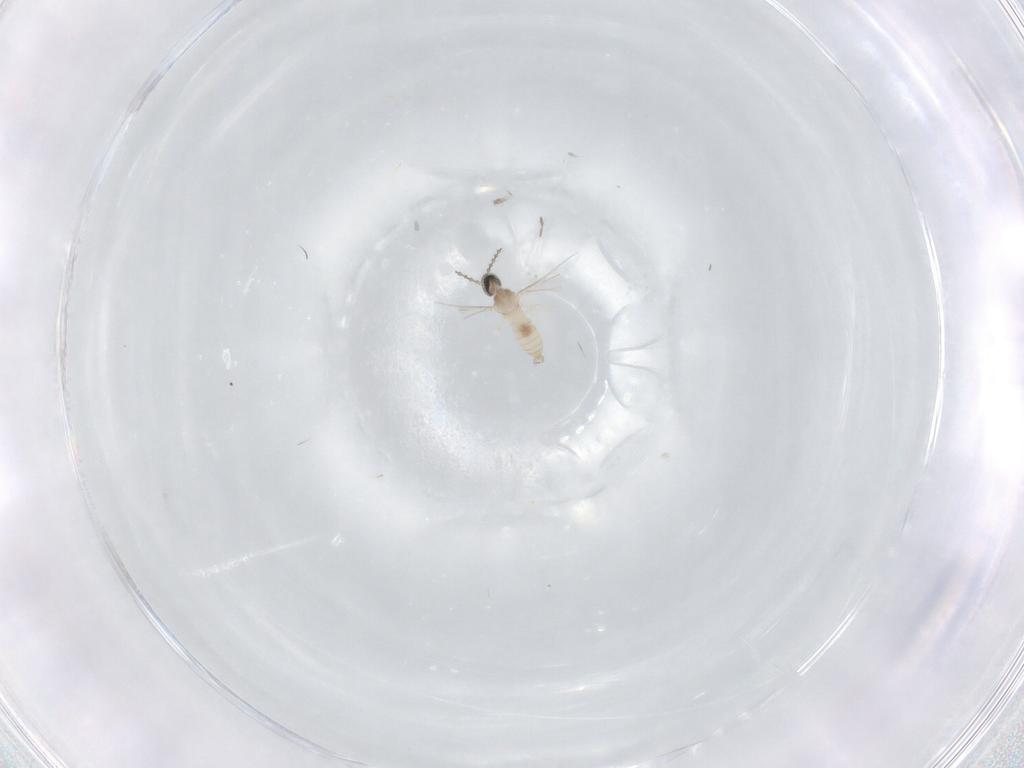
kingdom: Animalia
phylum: Arthropoda
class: Insecta
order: Diptera
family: Cecidomyiidae
